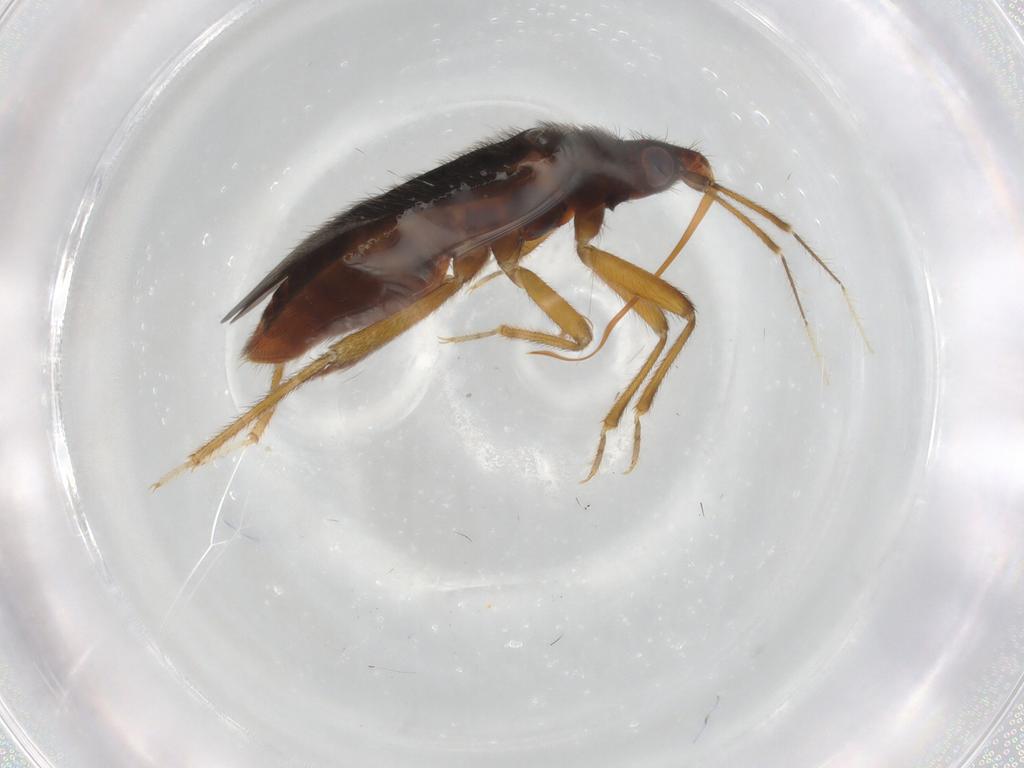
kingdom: Animalia
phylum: Arthropoda
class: Insecta
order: Hemiptera
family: Anthocoridae
